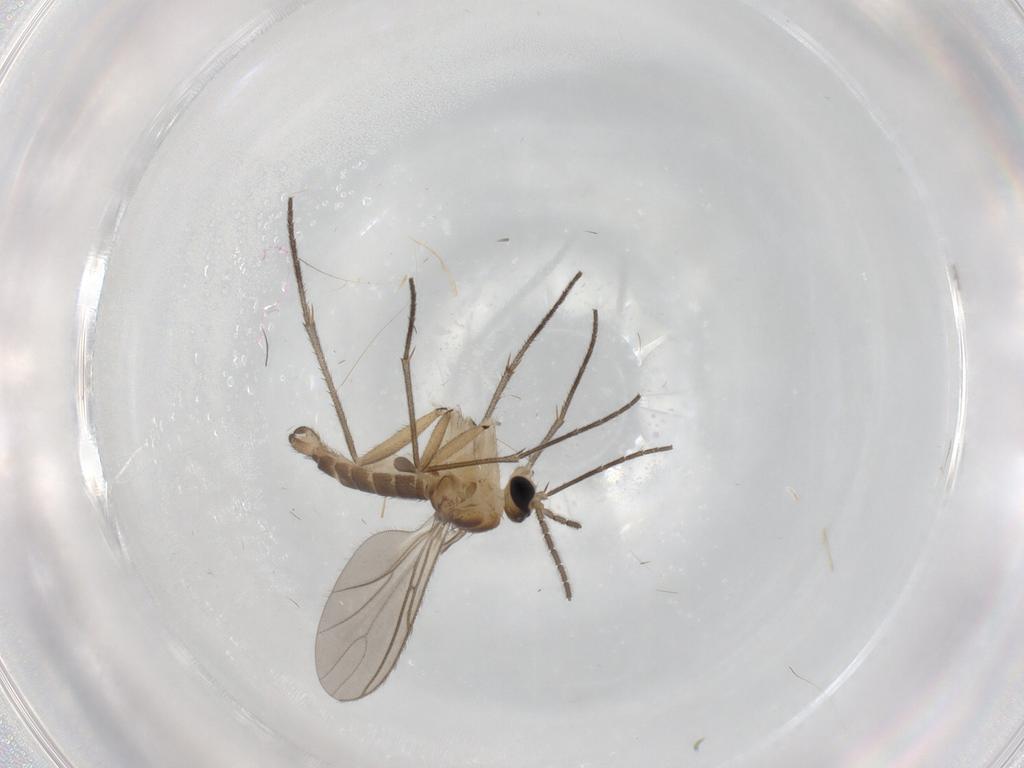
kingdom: Animalia
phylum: Arthropoda
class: Insecta
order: Diptera
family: Sciaridae
